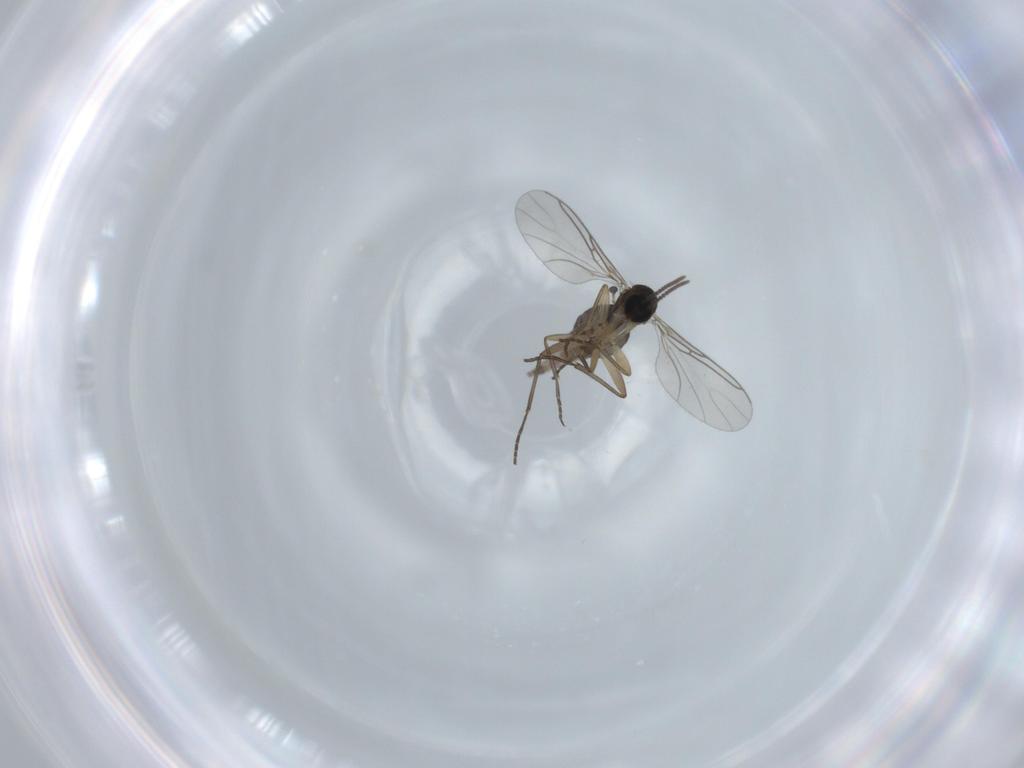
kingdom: Animalia
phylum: Arthropoda
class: Insecta
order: Diptera
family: Sciaridae
